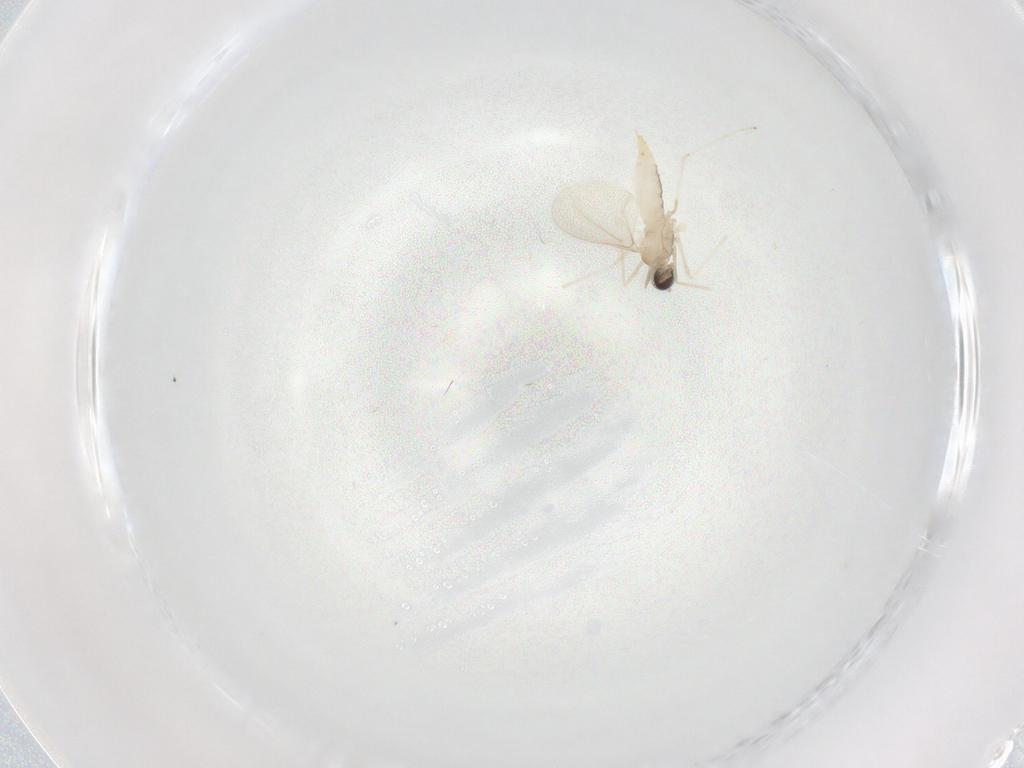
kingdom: Animalia
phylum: Arthropoda
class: Insecta
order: Diptera
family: Cecidomyiidae
